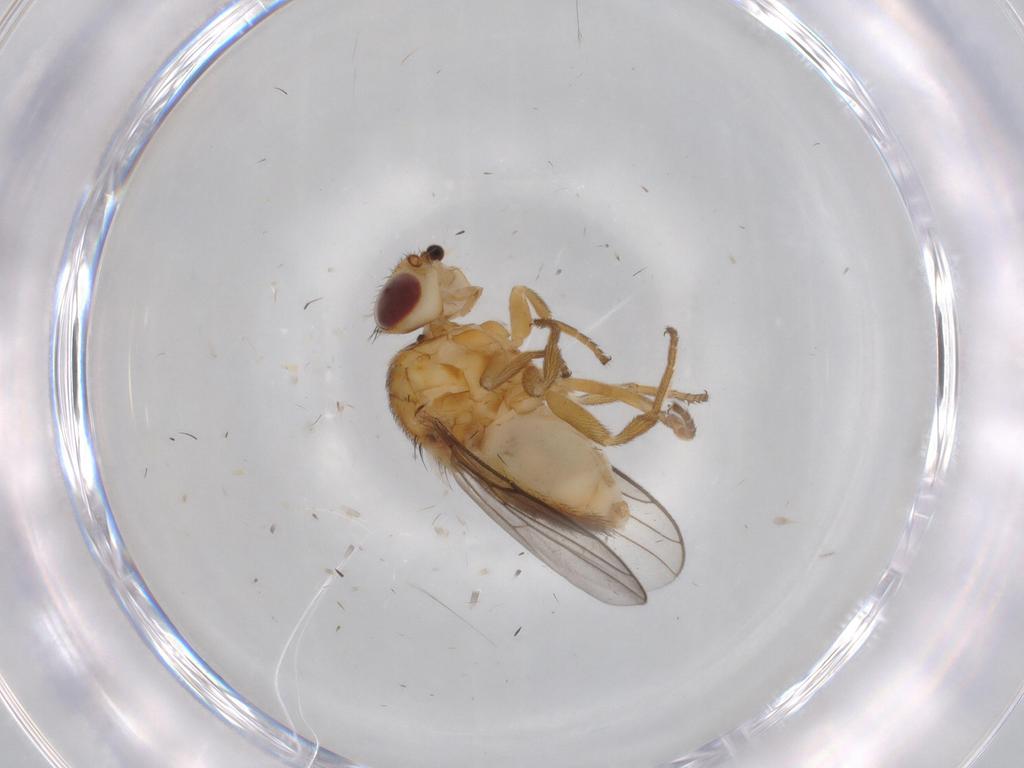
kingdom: Animalia
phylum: Arthropoda
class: Insecta
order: Diptera
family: Chloropidae
